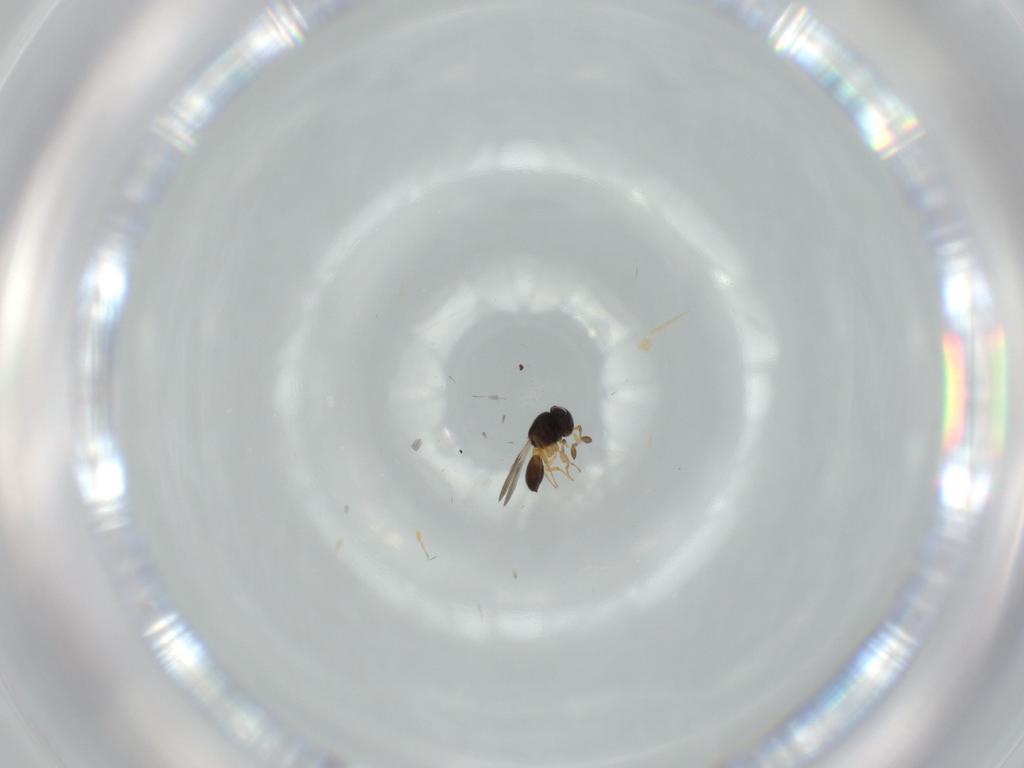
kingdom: Animalia
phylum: Arthropoda
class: Insecta
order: Hymenoptera
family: Scelionidae
